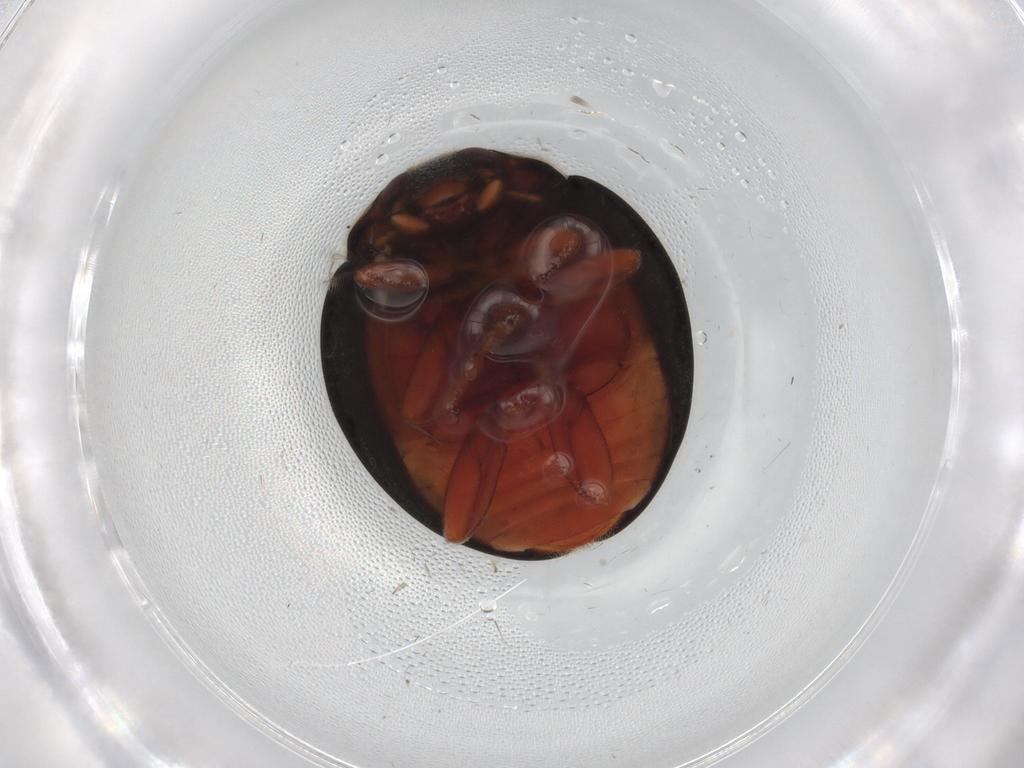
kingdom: Animalia
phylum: Arthropoda
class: Insecta
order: Coleoptera
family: Coccinellidae
